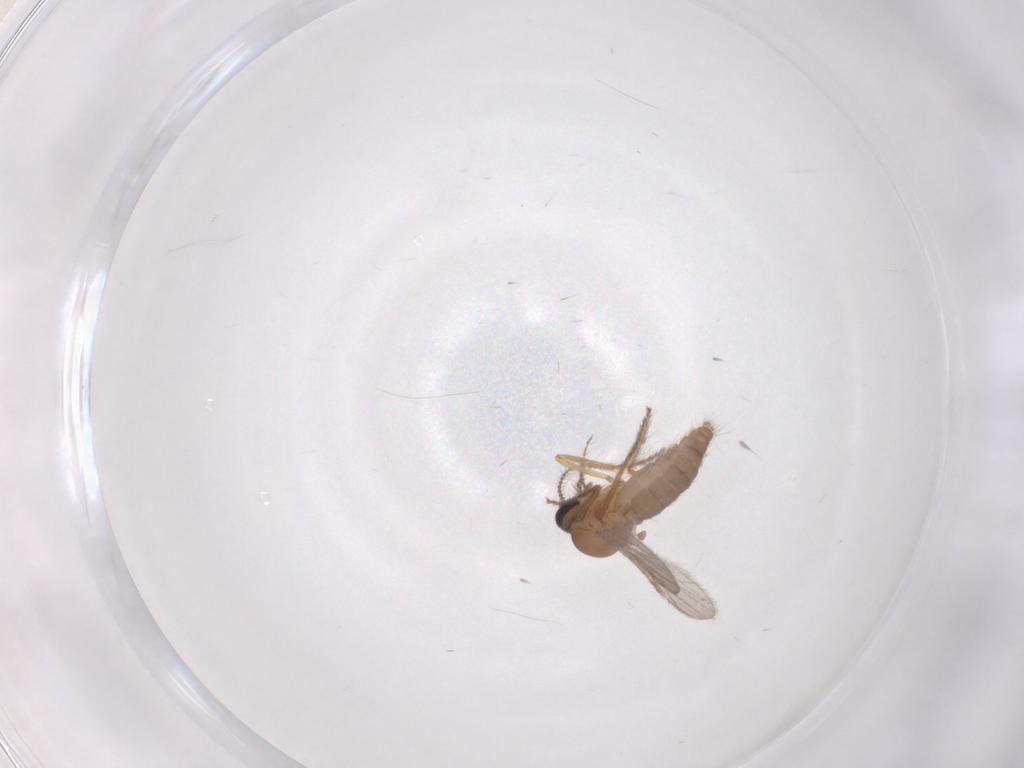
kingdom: Animalia
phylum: Arthropoda
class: Insecta
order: Diptera
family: Ceratopogonidae
